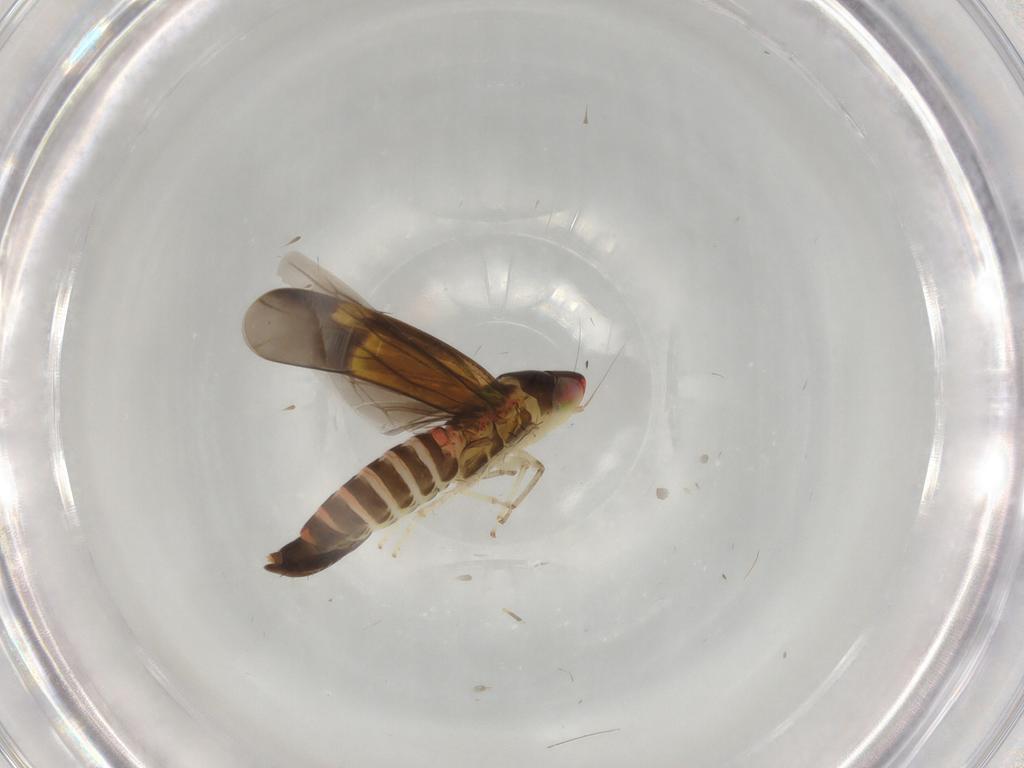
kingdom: Animalia
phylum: Arthropoda
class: Insecta
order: Hemiptera
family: Cicadellidae
